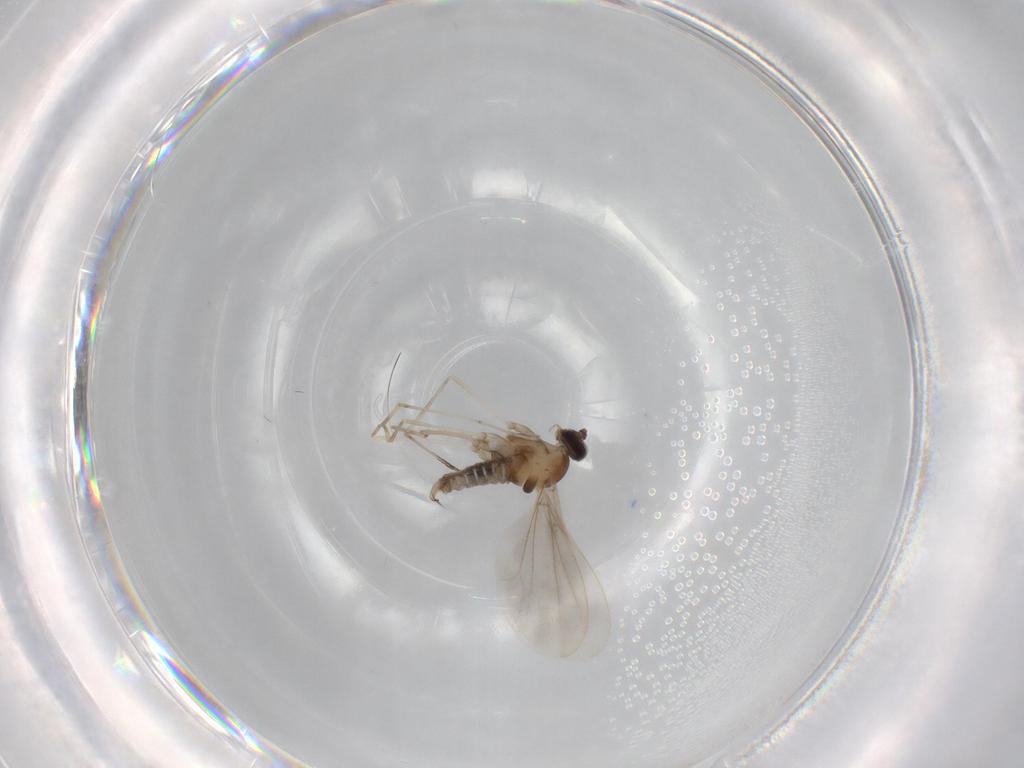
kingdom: Animalia
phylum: Arthropoda
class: Insecta
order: Diptera
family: Cecidomyiidae
